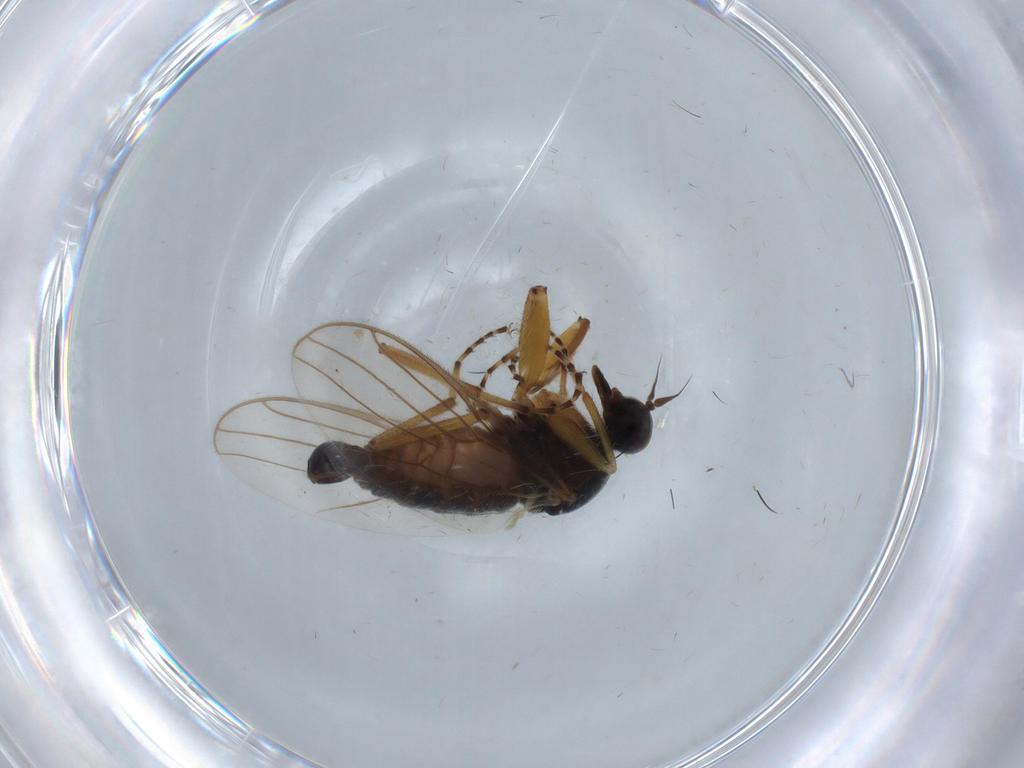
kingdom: Animalia
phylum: Arthropoda
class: Insecta
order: Diptera
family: Hybotidae
